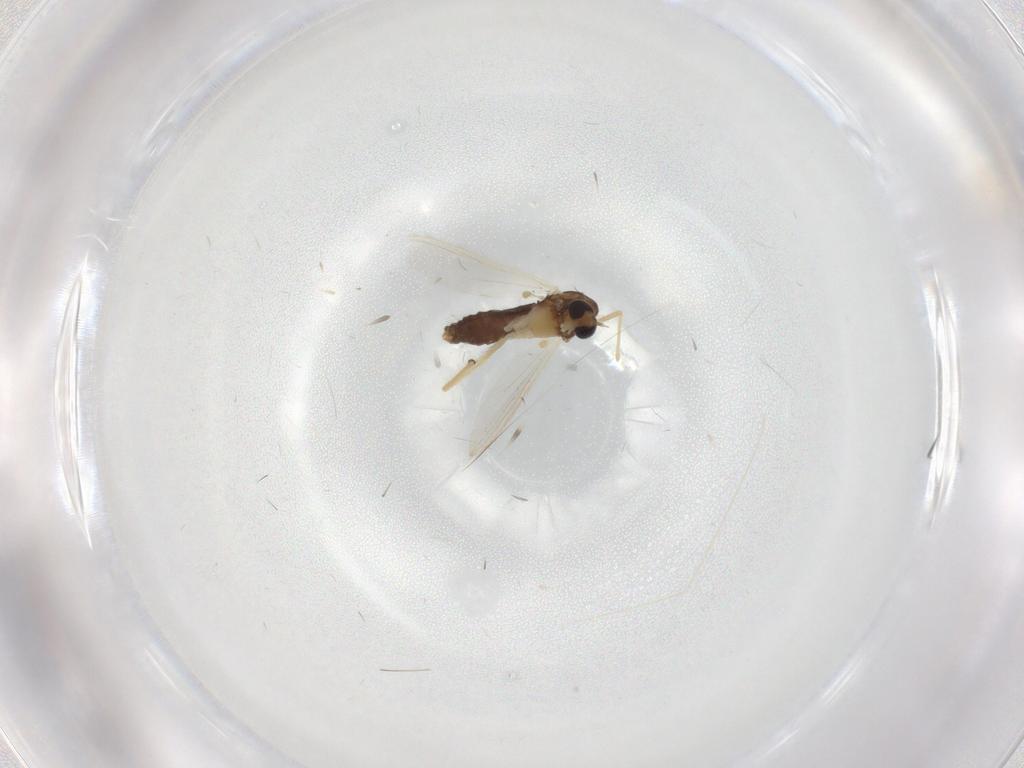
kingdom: Animalia
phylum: Arthropoda
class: Insecta
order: Diptera
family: Chironomidae
